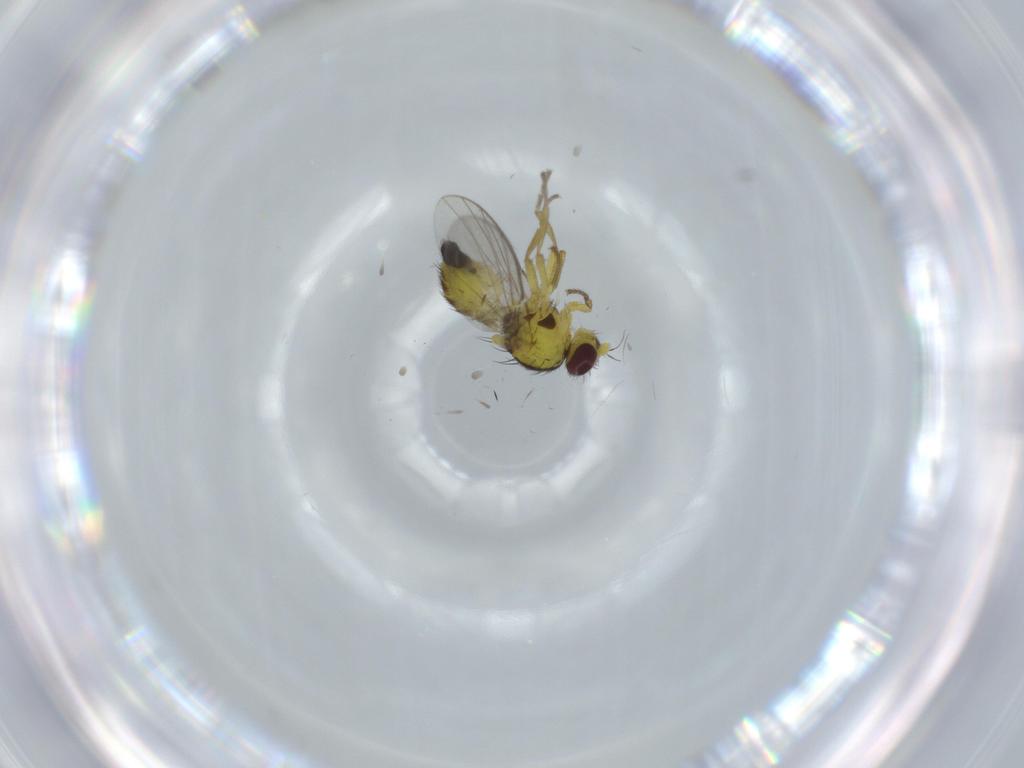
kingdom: Animalia
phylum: Arthropoda
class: Insecta
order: Diptera
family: Agromyzidae
